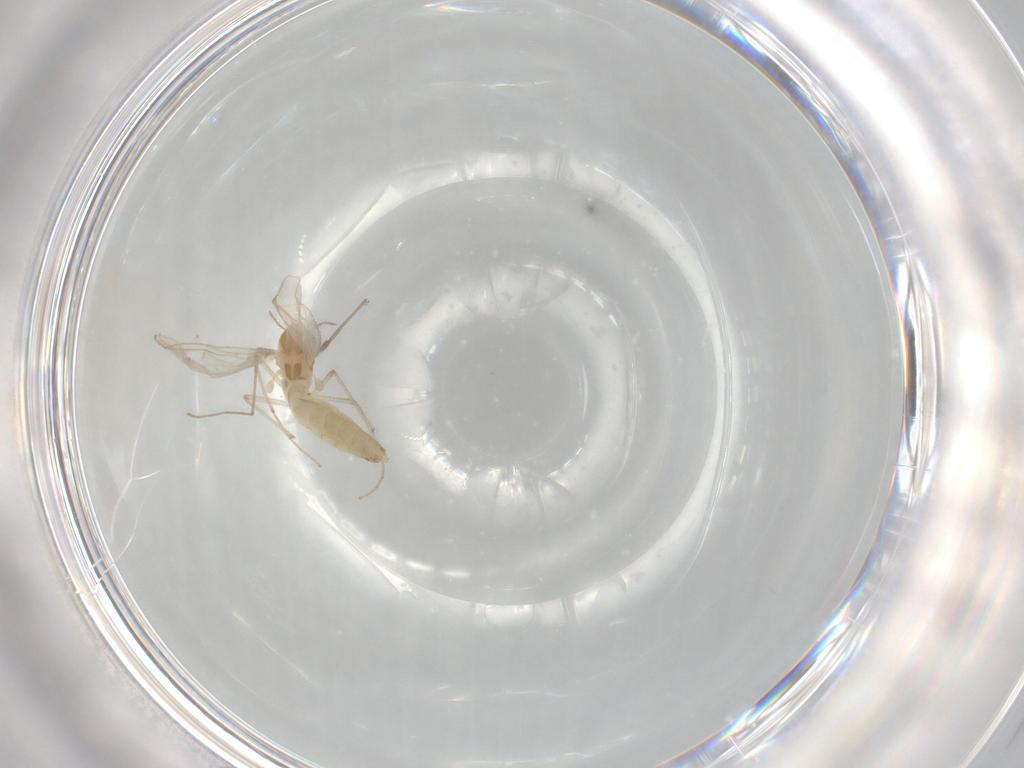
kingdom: Animalia
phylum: Arthropoda
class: Insecta
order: Diptera
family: Chironomidae
